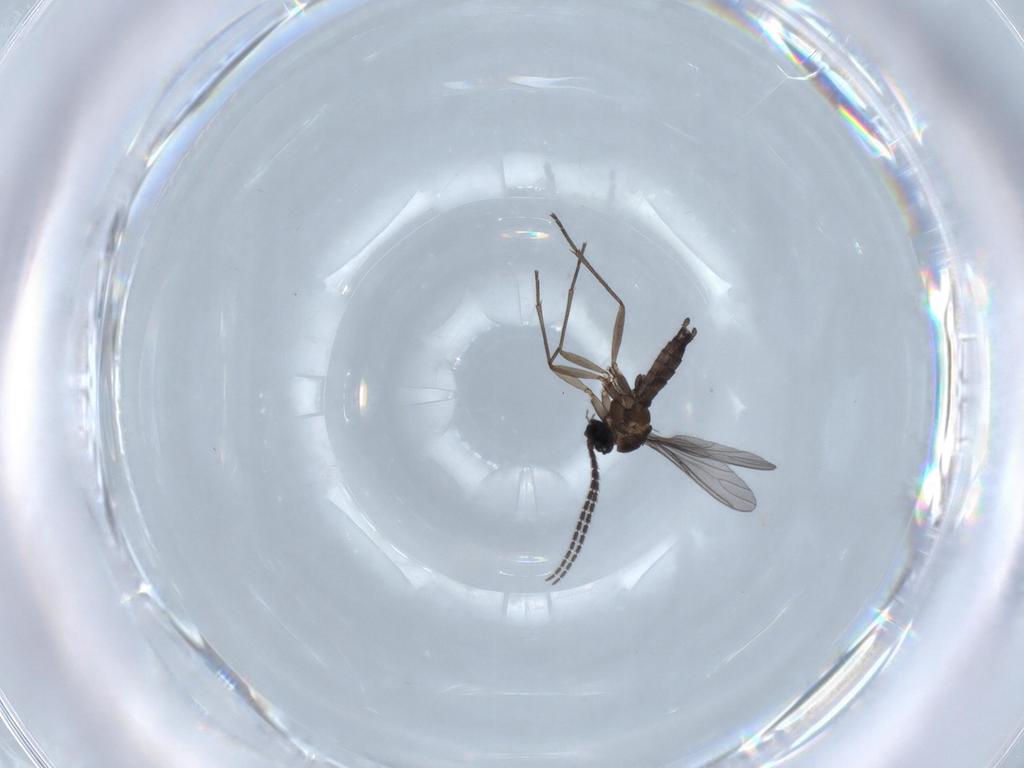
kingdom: Animalia
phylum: Arthropoda
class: Insecta
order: Diptera
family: Sciaridae
